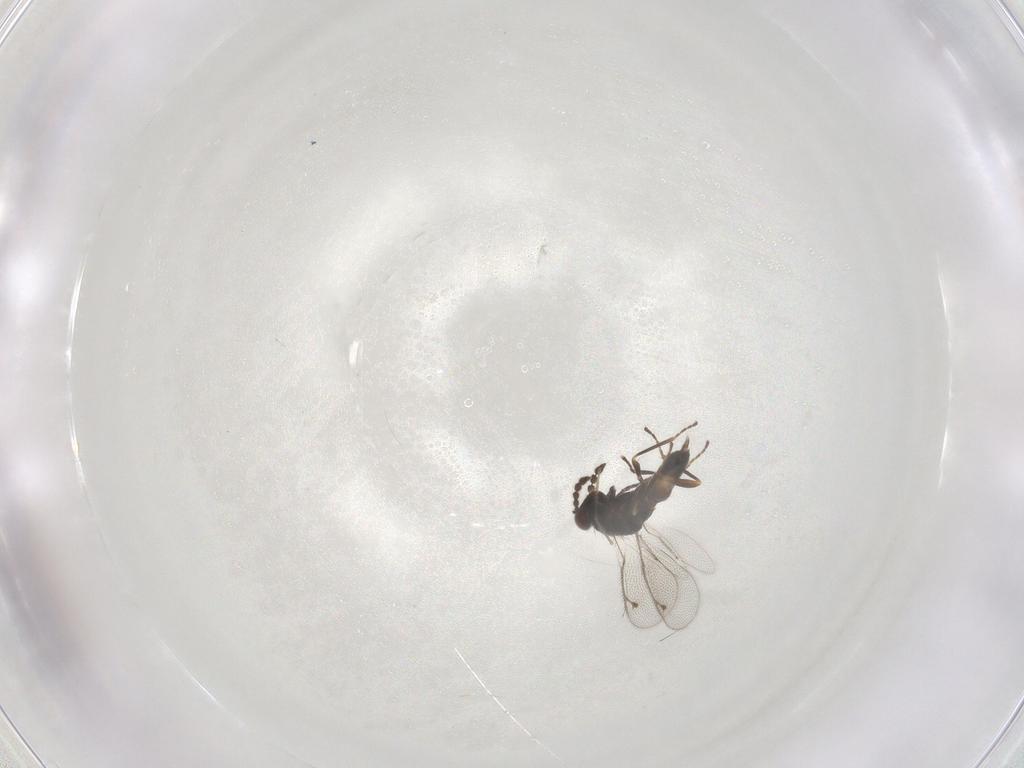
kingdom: Animalia
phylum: Arthropoda
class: Insecta
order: Hymenoptera
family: Eulophidae
